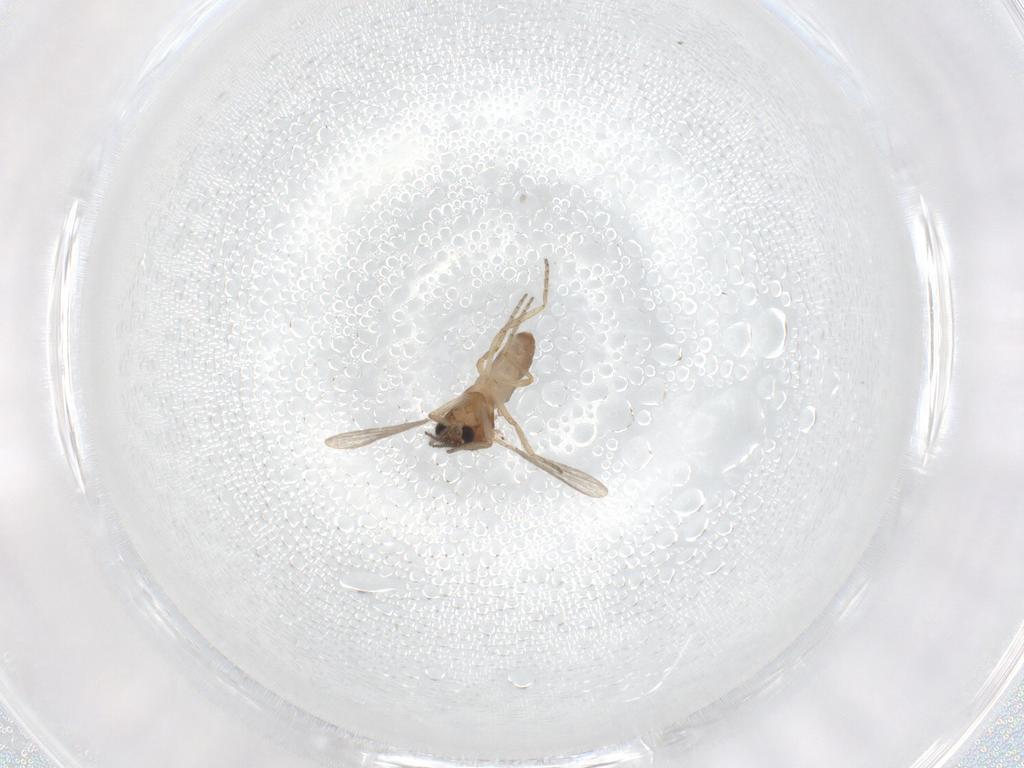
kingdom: Animalia
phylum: Arthropoda
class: Insecta
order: Diptera
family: Ceratopogonidae
